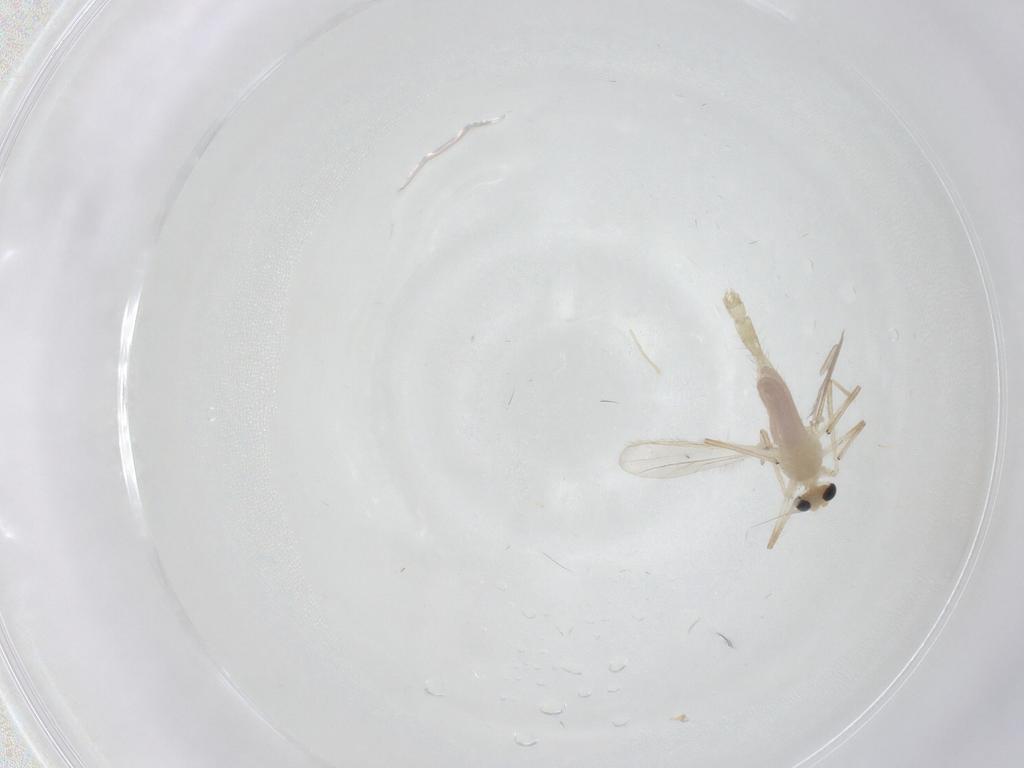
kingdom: Animalia
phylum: Arthropoda
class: Insecta
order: Diptera
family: Chironomidae
